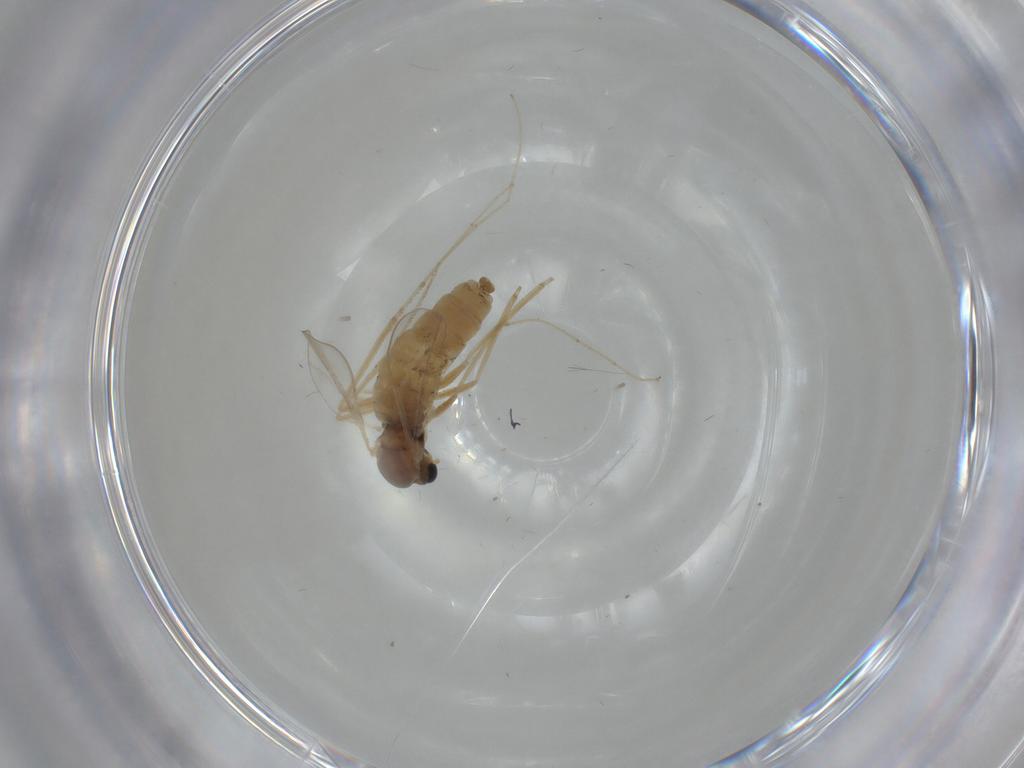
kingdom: Animalia
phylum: Arthropoda
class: Insecta
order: Diptera
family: Cecidomyiidae
